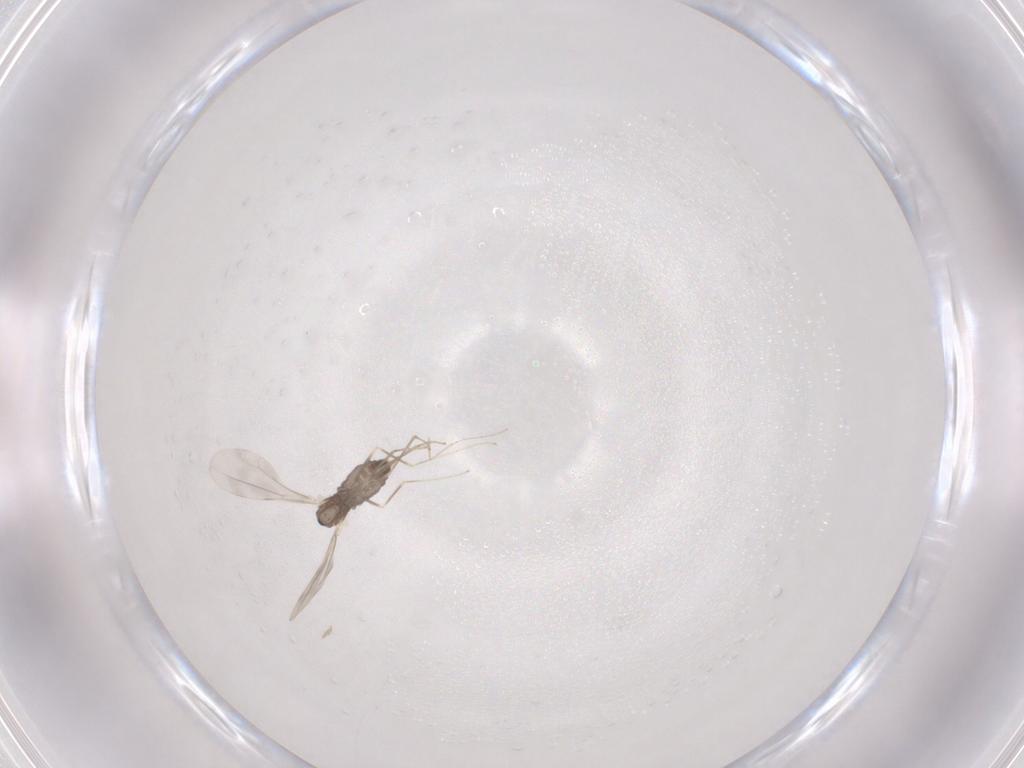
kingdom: Animalia
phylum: Arthropoda
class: Insecta
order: Diptera
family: Cecidomyiidae
